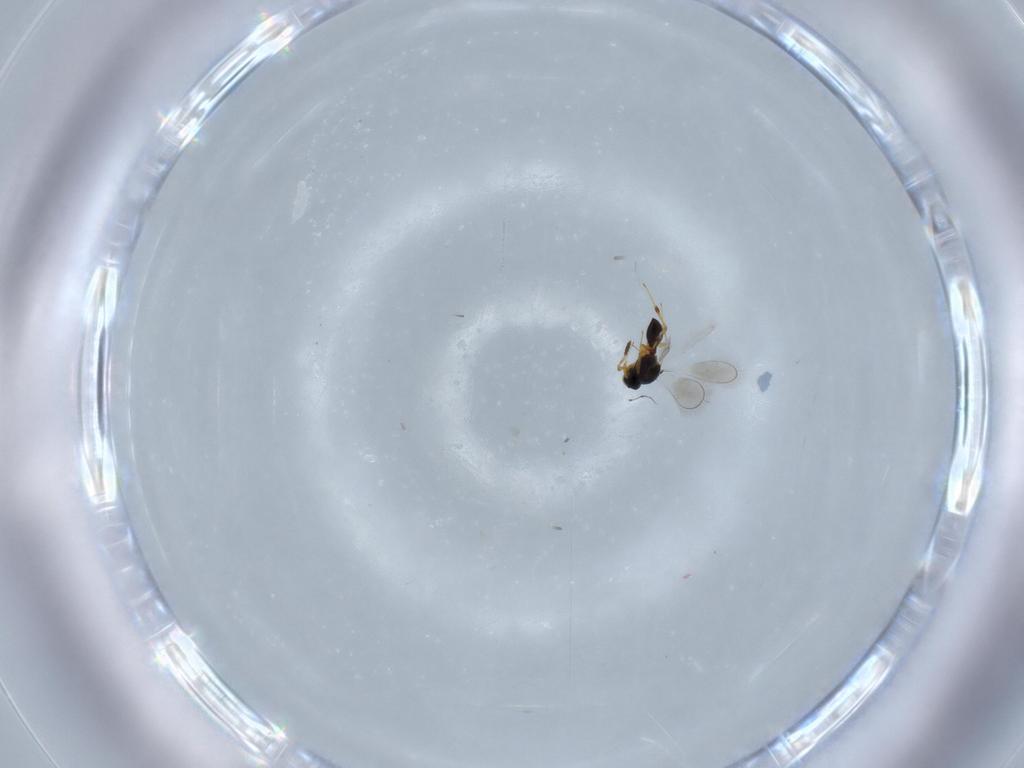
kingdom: Animalia
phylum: Arthropoda
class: Insecta
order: Hymenoptera
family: Platygastridae
